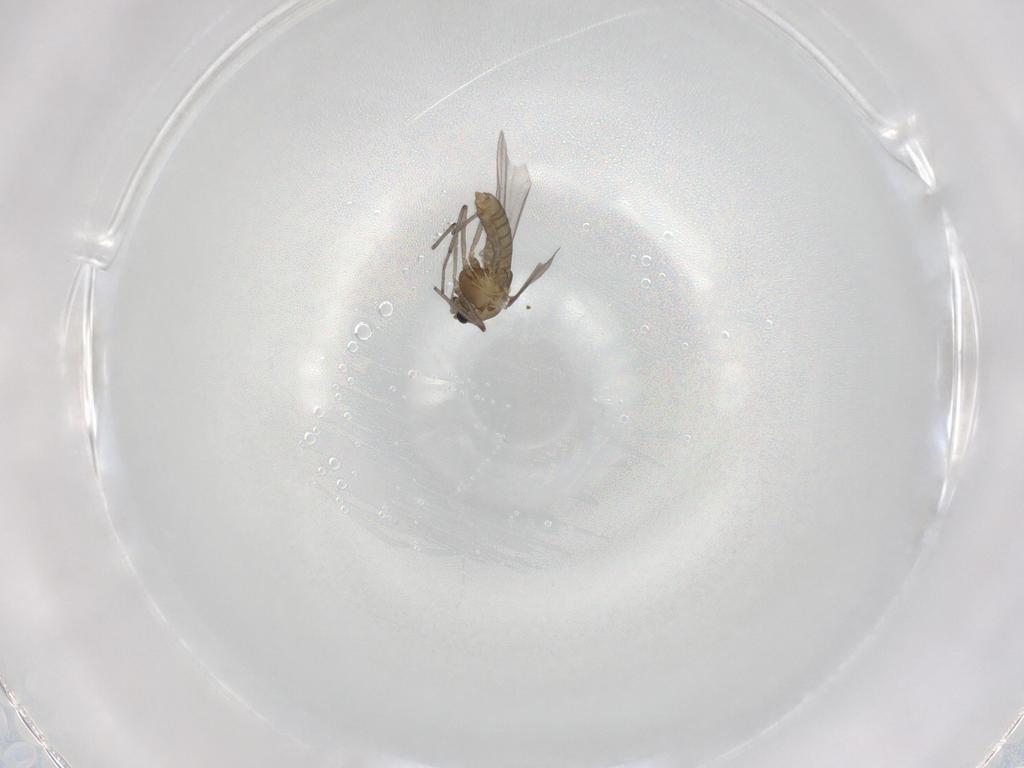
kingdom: Animalia
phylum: Arthropoda
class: Insecta
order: Diptera
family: Chironomidae
